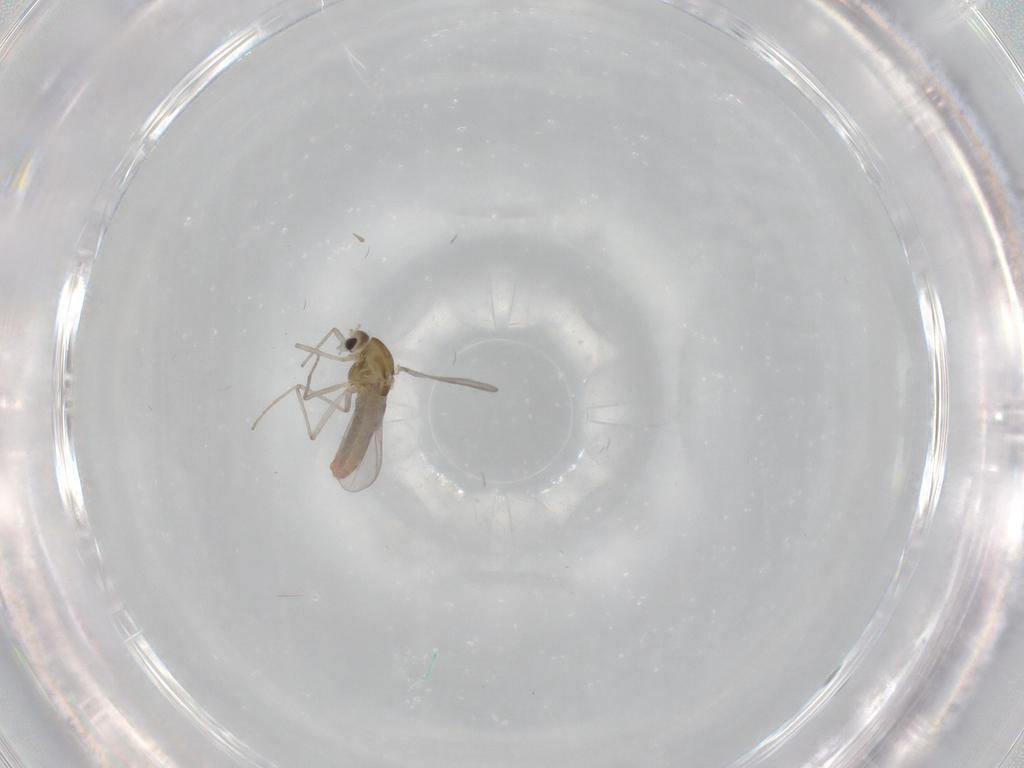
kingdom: Animalia
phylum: Arthropoda
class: Insecta
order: Diptera
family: Chironomidae
